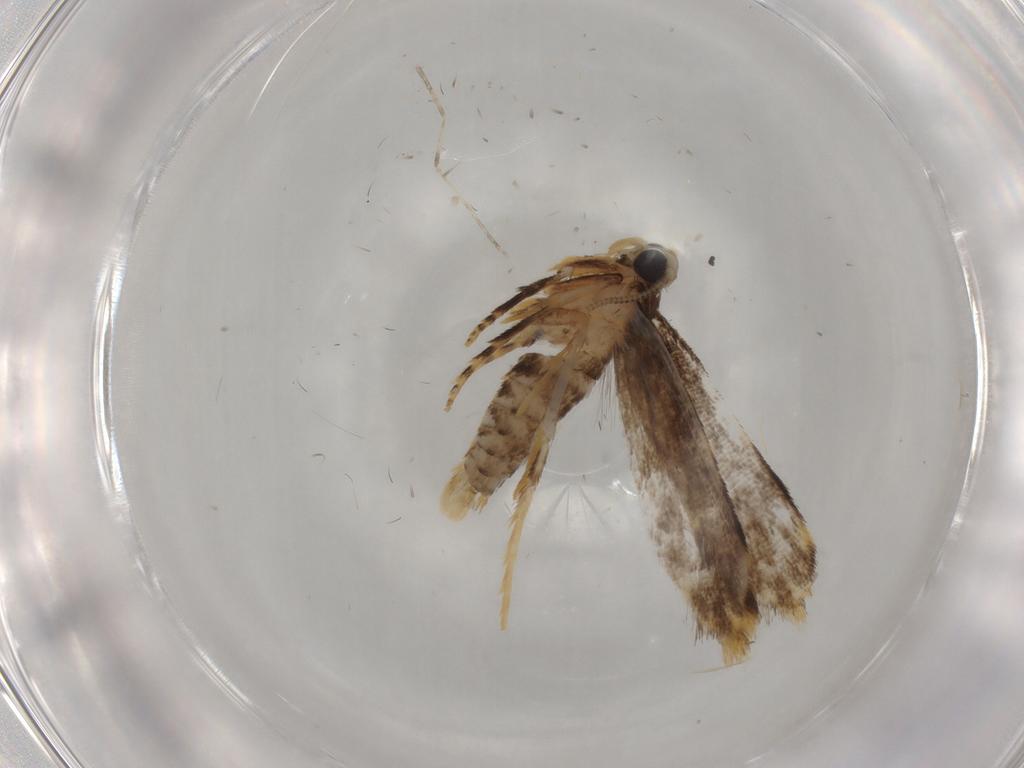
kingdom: Animalia
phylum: Arthropoda
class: Insecta
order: Lepidoptera
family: Tineidae
